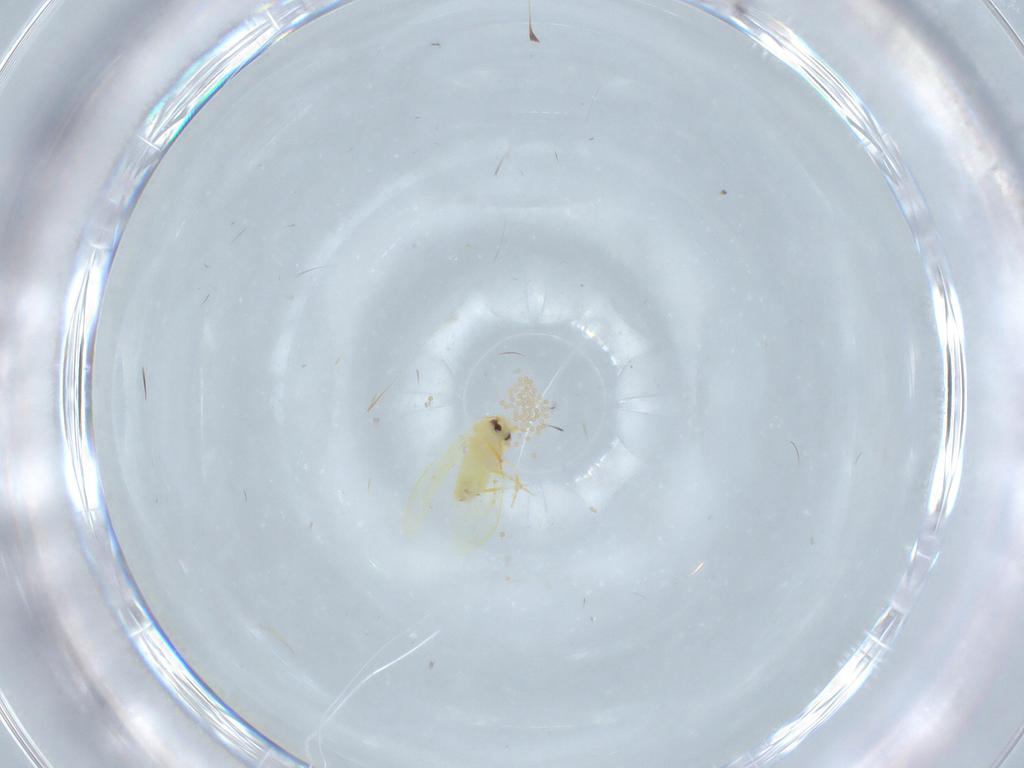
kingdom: Animalia
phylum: Arthropoda
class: Insecta
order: Hemiptera
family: Aleyrodidae
